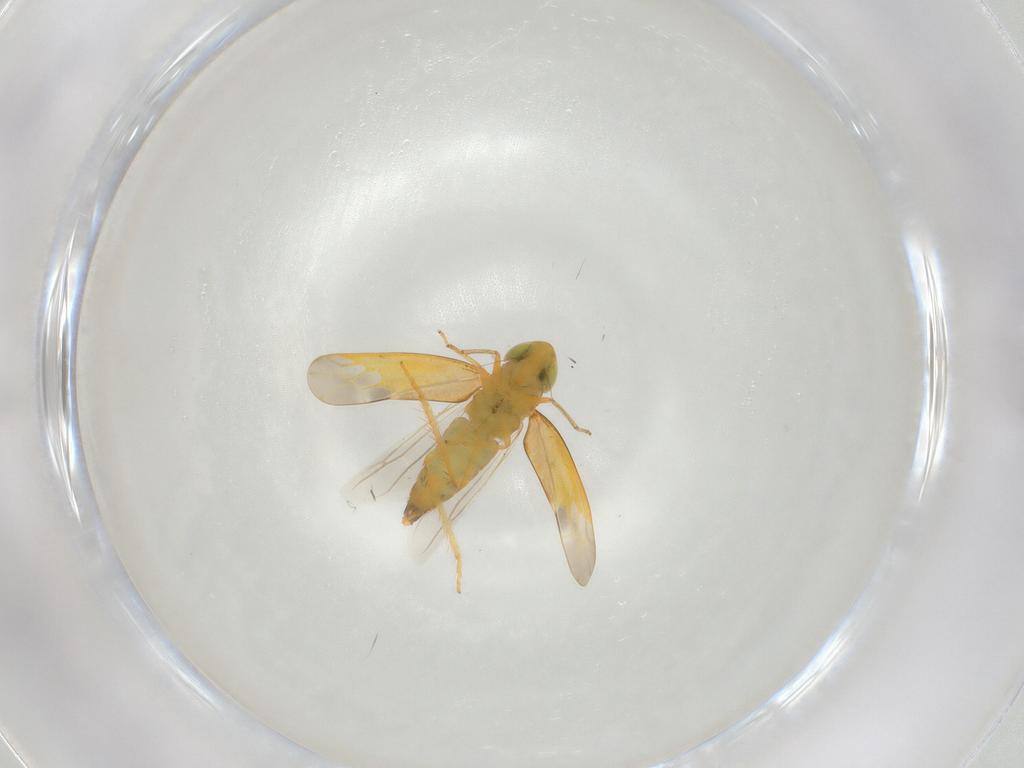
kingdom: Animalia
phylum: Arthropoda
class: Insecta
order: Hemiptera
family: Cicadellidae
